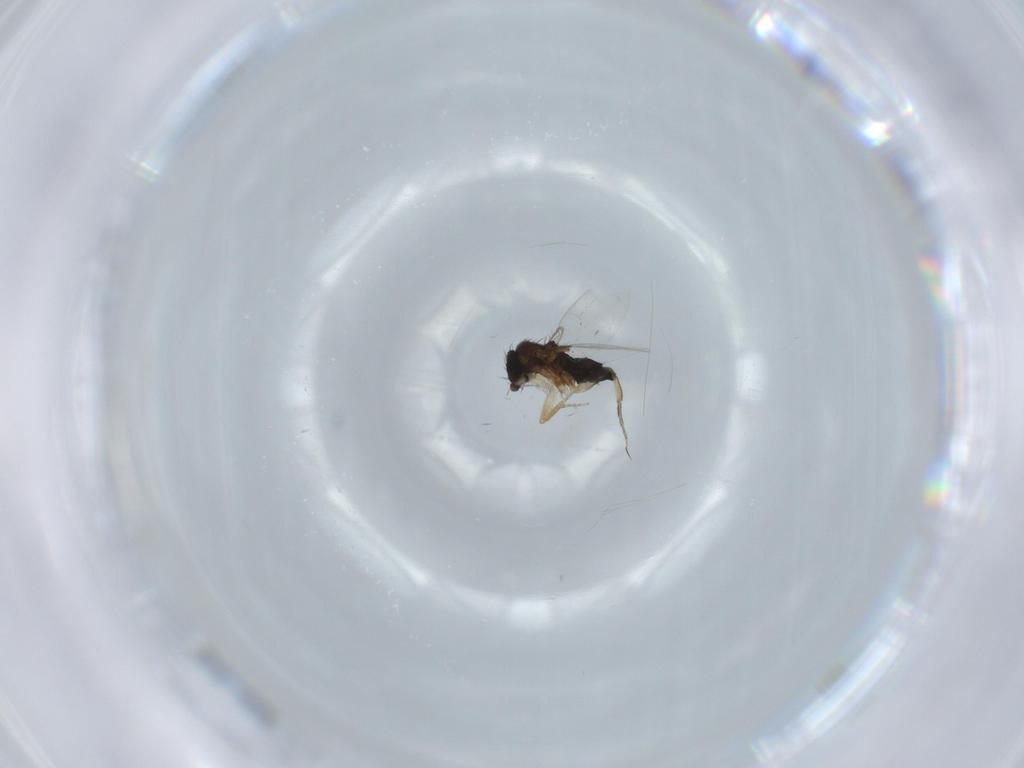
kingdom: Animalia
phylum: Arthropoda
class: Insecta
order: Diptera
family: Phoridae
